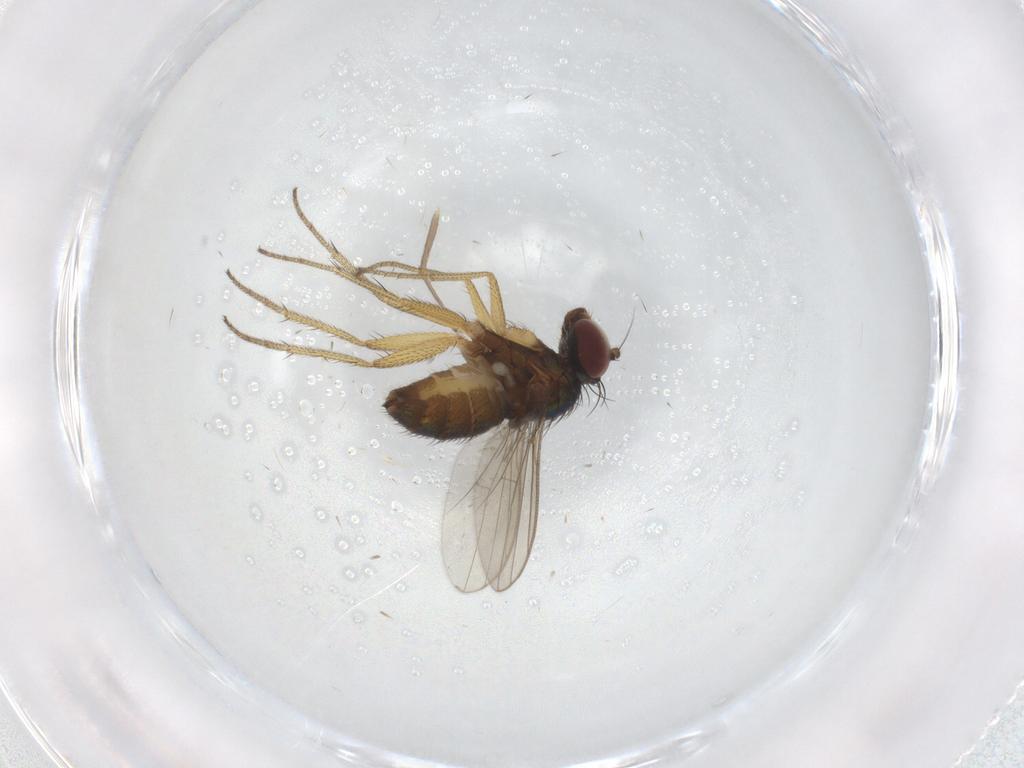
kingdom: Animalia
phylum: Arthropoda
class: Insecta
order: Diptera
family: Dolichopodidae
